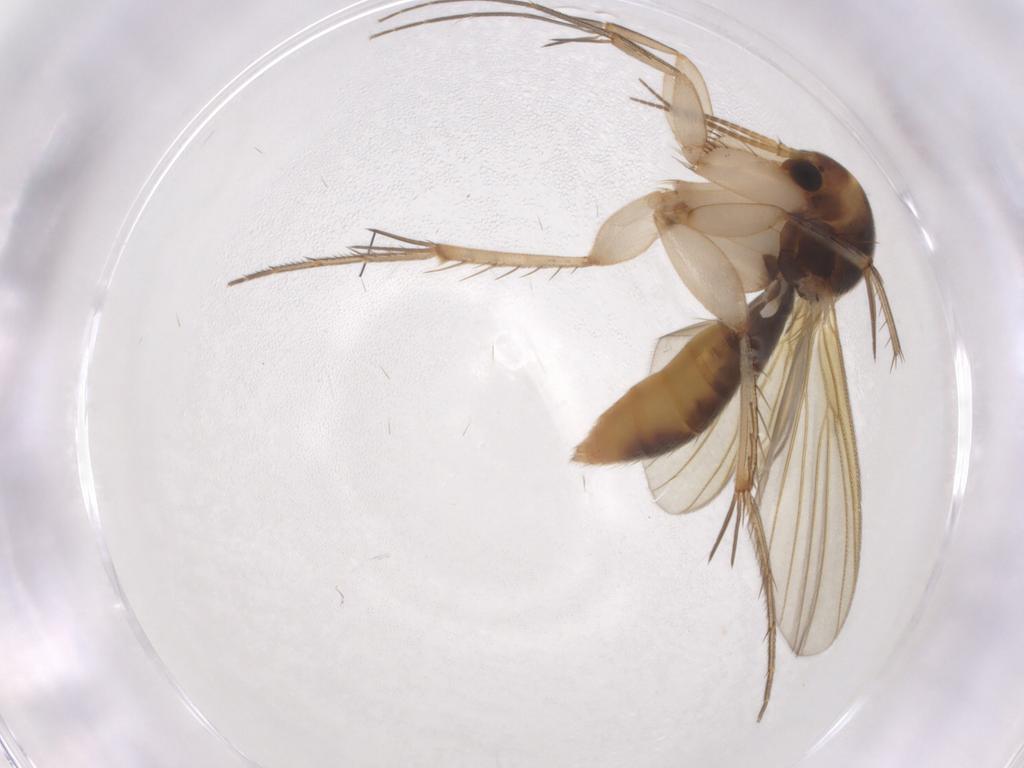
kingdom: Animalia
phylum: Arthropoda
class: Insecta
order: Diptera
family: Mycetophilidae
